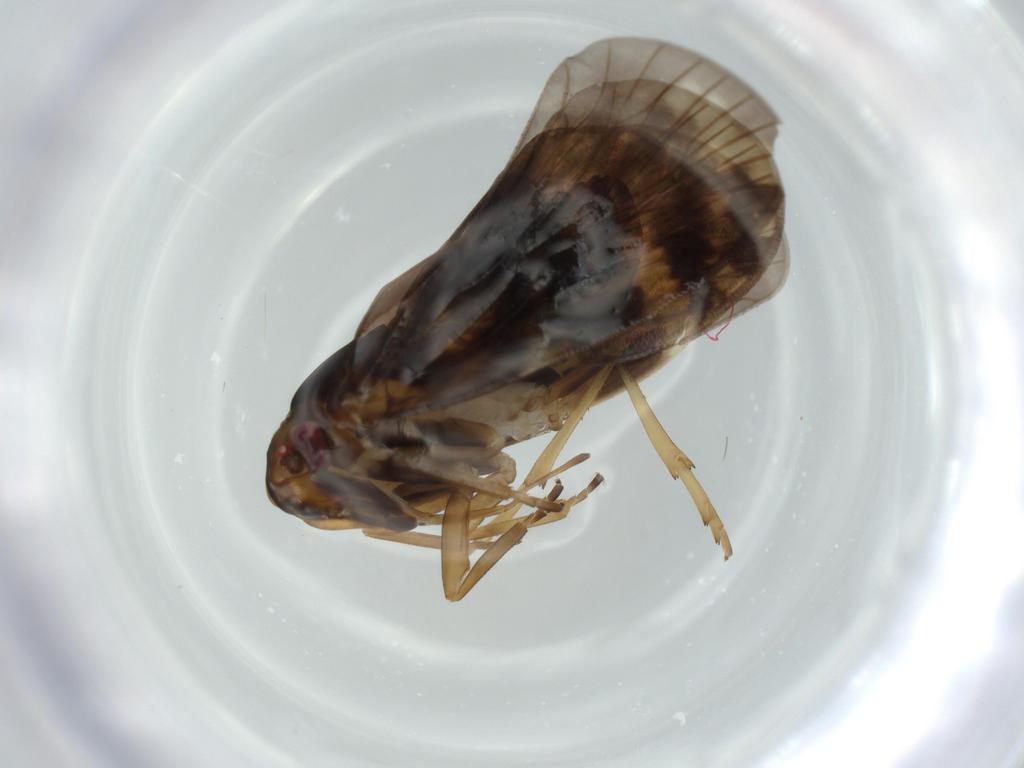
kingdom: Animalia
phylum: Arthropoda
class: Insecta
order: Hemiptera
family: Cixiidae
